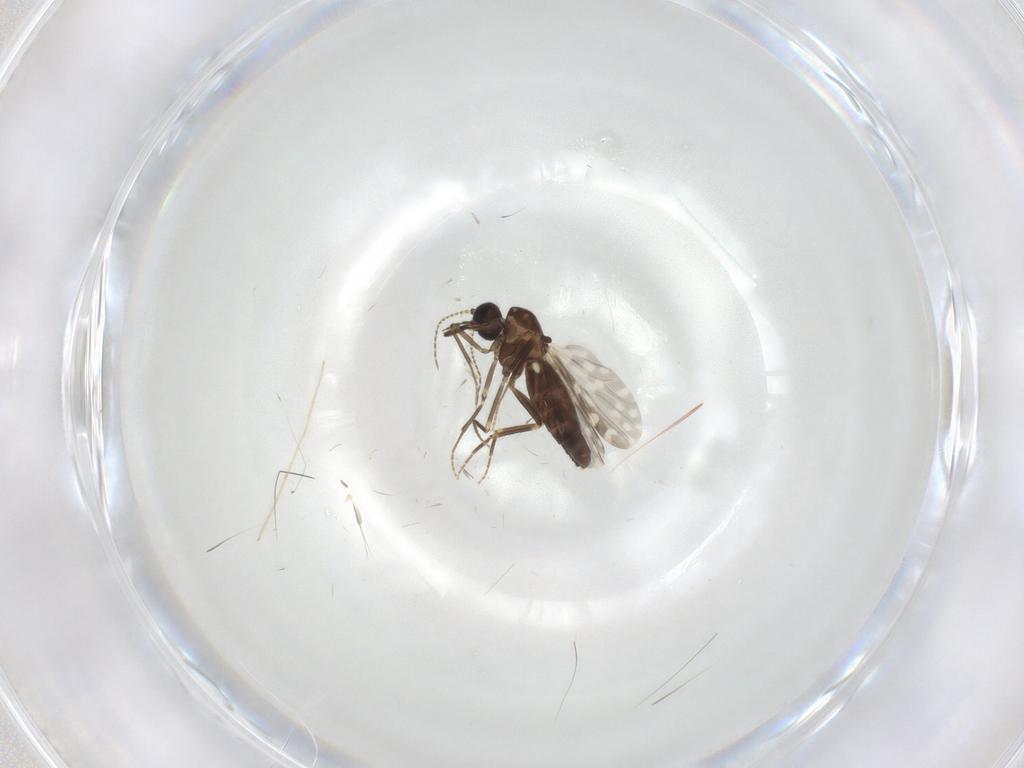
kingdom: Animalia
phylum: Arthropoda
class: Insecta
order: Diptera
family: Ceratopogonidae
